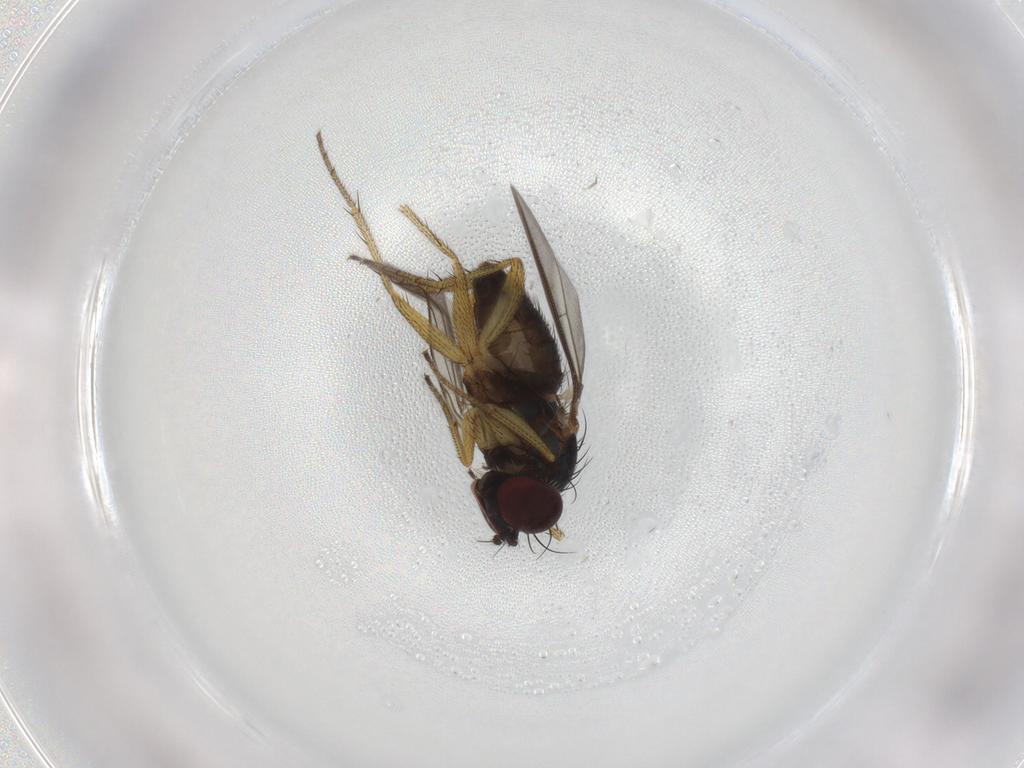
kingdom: Animalia
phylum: Arthropoda
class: Insecta
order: Diptera
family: Dolichopodidae
